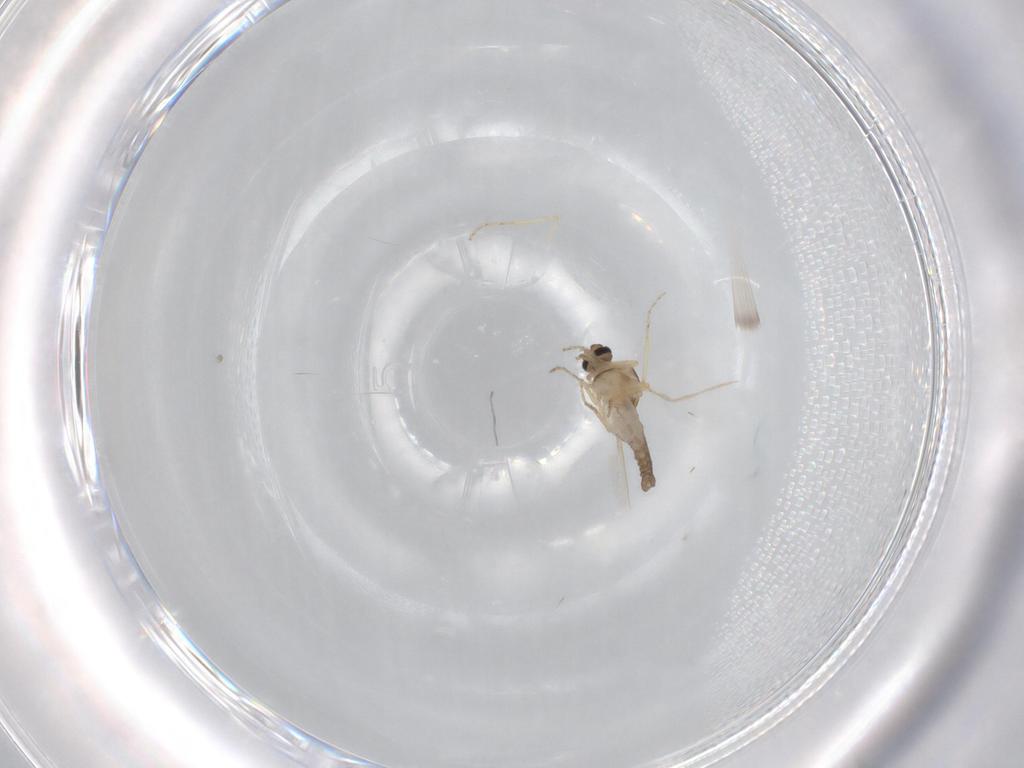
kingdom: Animalia
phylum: Arthropoda
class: Insecta
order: Diptera
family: Ceratopogonidae
